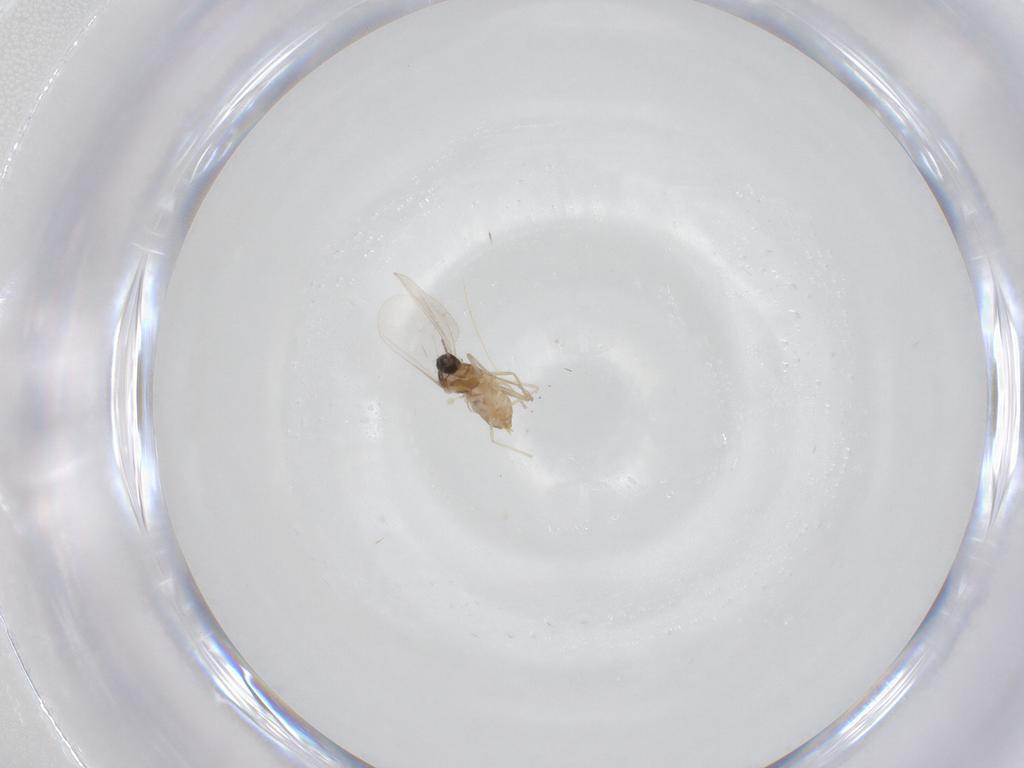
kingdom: Animalia
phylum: Arthropoda
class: Insecta
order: Diptera
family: Cecidomyiidae
